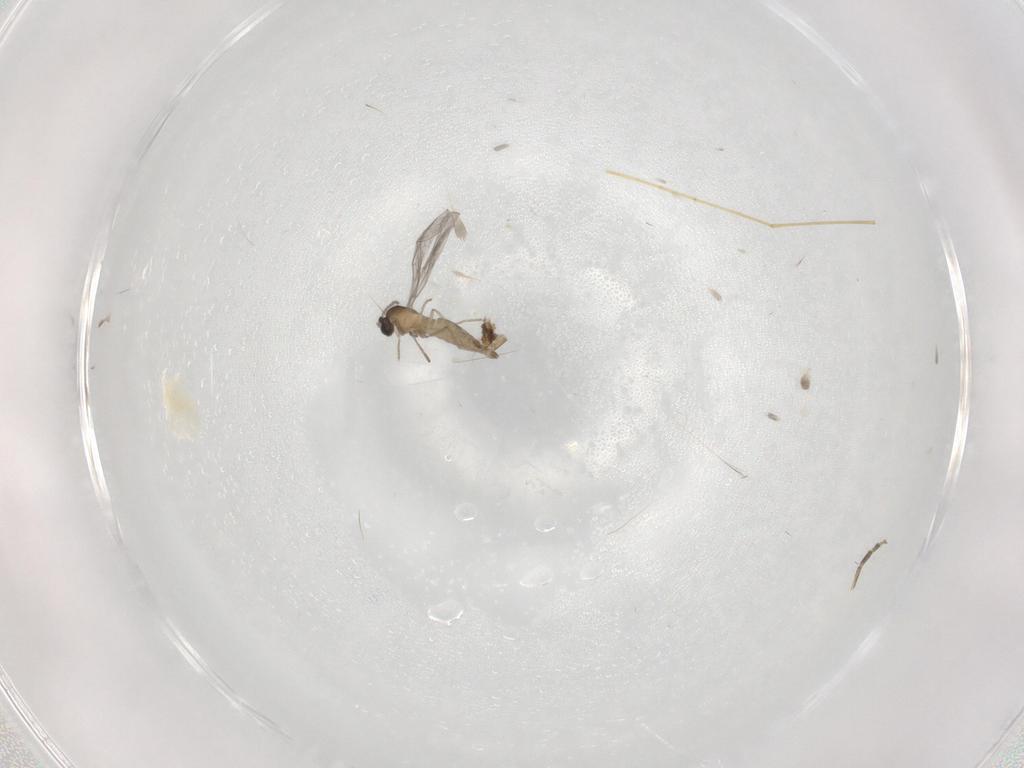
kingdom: Animalia
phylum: Arthropoda
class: Insecta
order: Diptera
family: Cecidomyiidae
